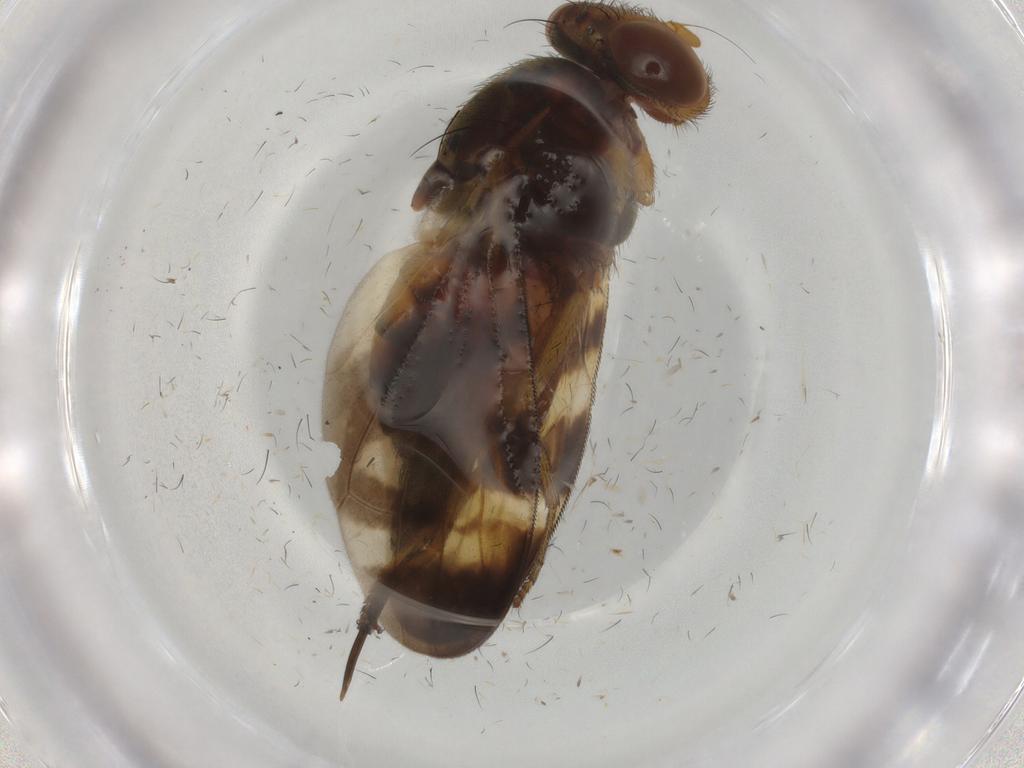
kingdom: Animalia
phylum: Arthropoda
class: Insecta
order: Diptera
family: Ulidiidae
